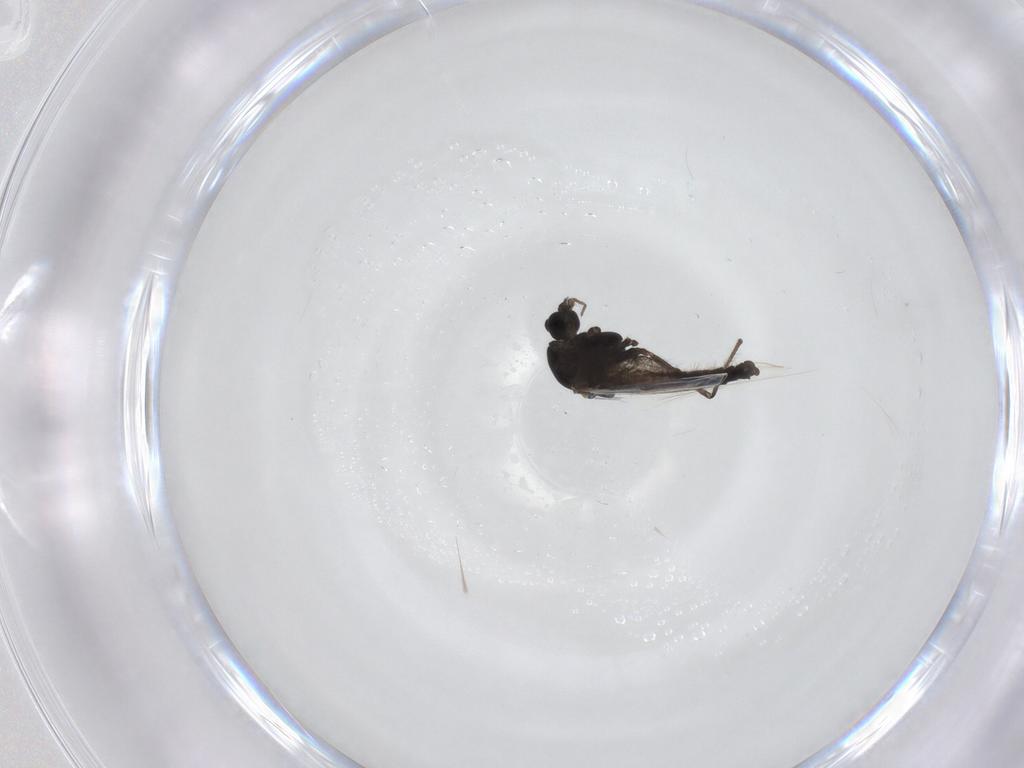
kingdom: Animalia
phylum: Arthropoda
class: Insecta
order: Diptera
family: Chironomidae
